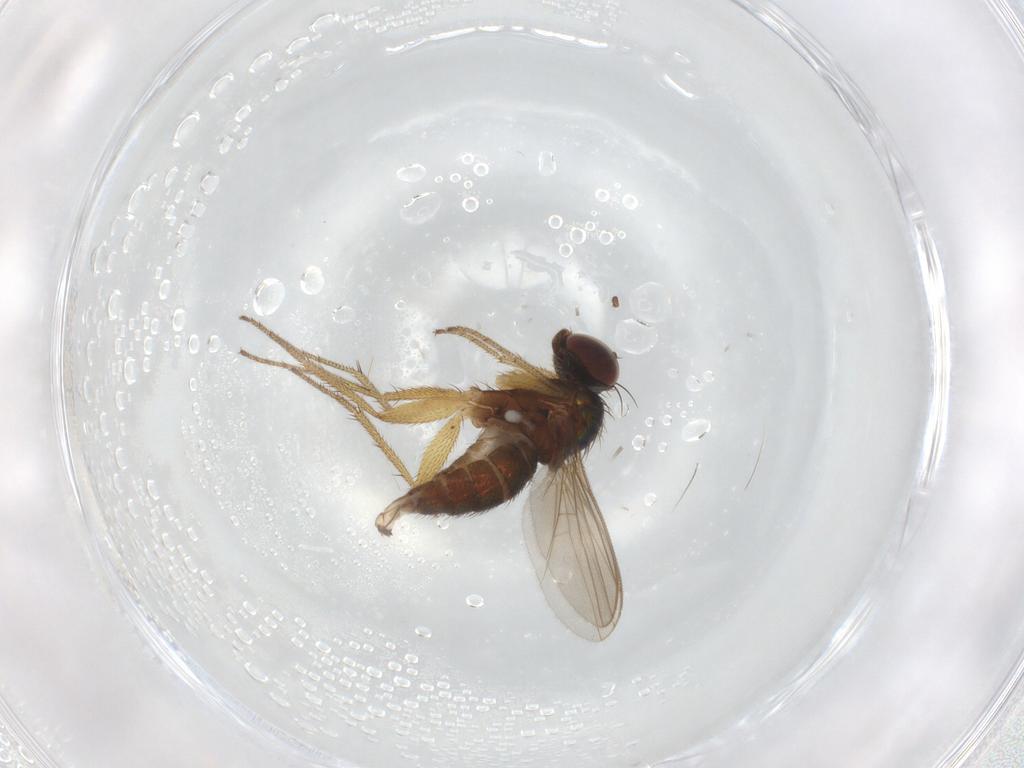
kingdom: Animalia
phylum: Arthropoda
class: Insecta
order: Diptera
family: Dolichopodidae
